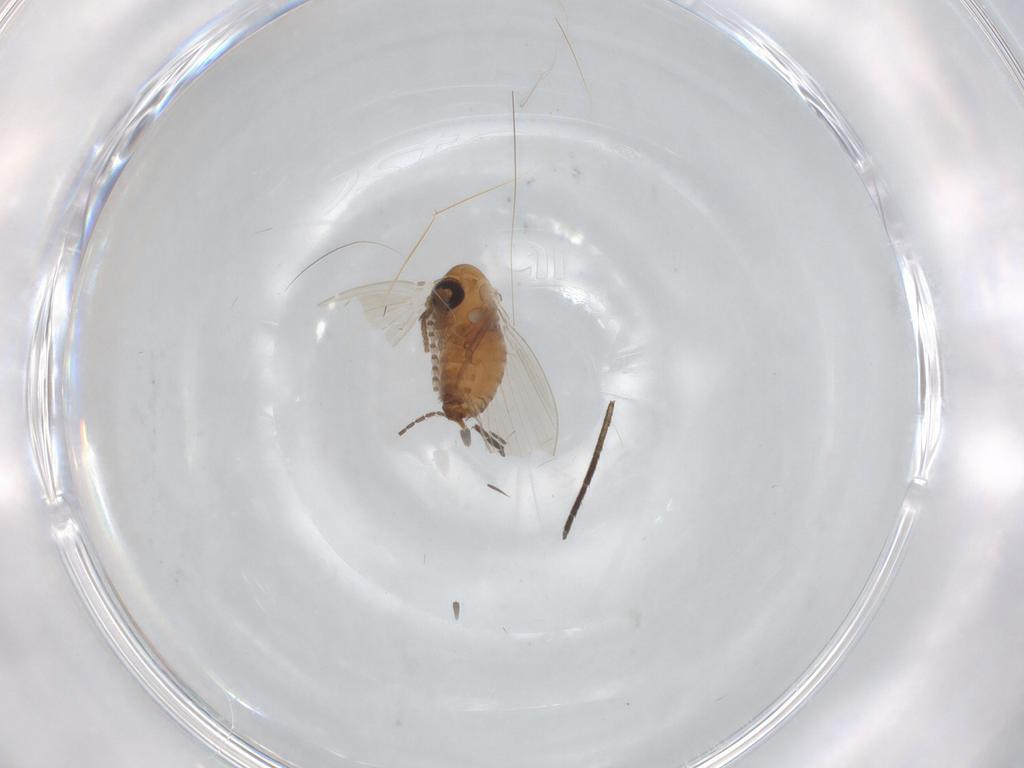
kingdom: Animalia
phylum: Arthropoda
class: Insecta
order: Diptera
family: Psychodidae
